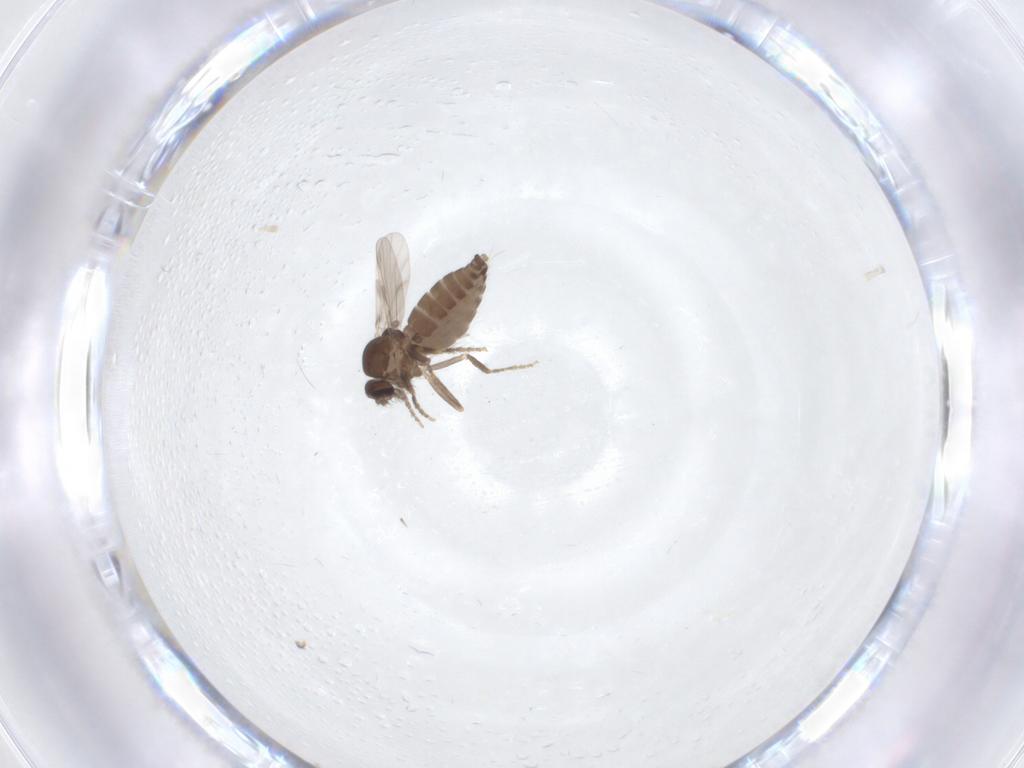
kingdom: Animalia
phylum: Arthropoda
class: Insecta
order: Diptera
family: Ceratopogonidae
